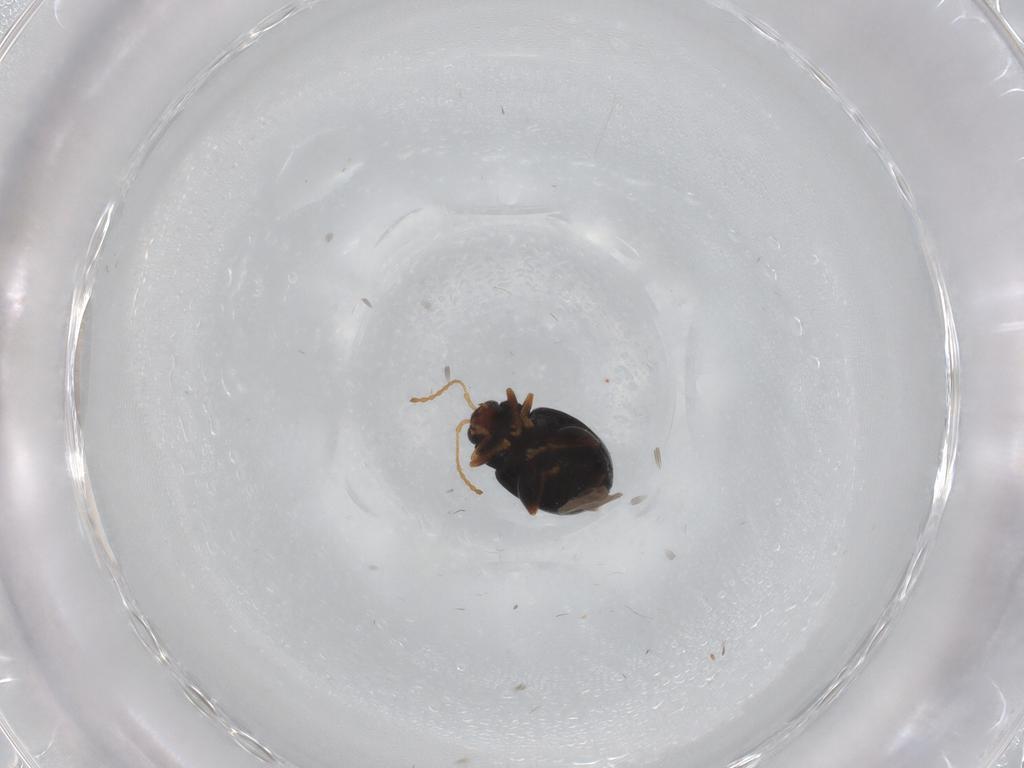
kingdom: Animalia
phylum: Arthropoda
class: Insecta
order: Coleoptera
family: Chrysomelidae
